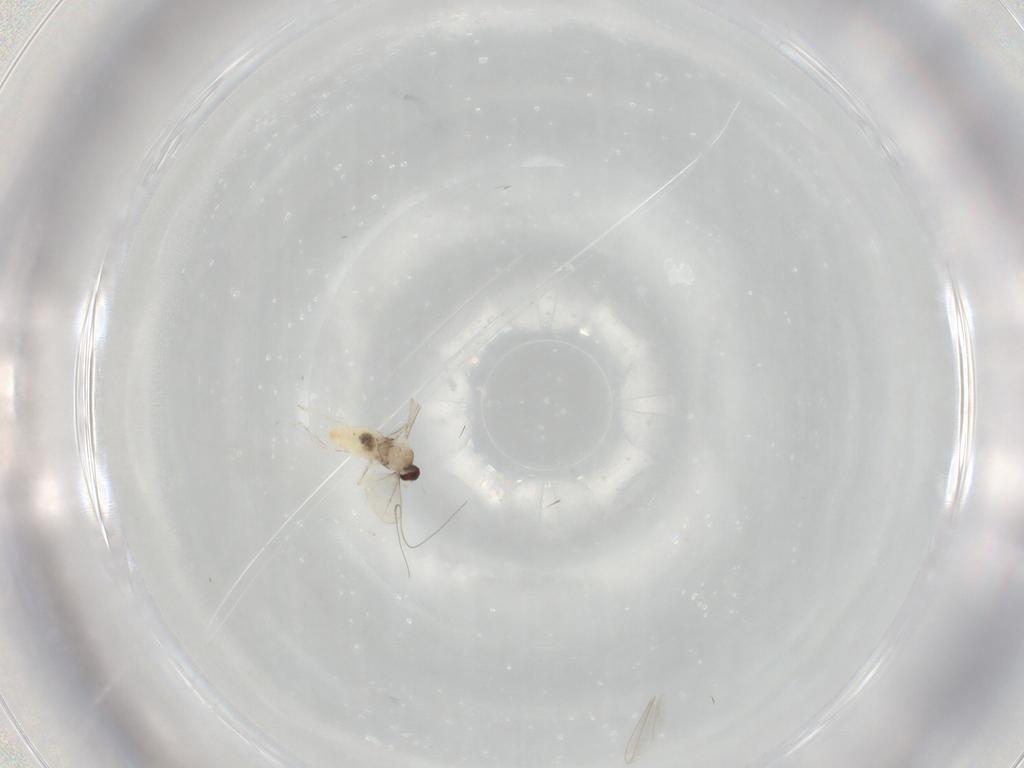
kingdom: Animalia
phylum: Arthropoda
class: Insecta
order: Diptera
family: Cecidomyiidae
